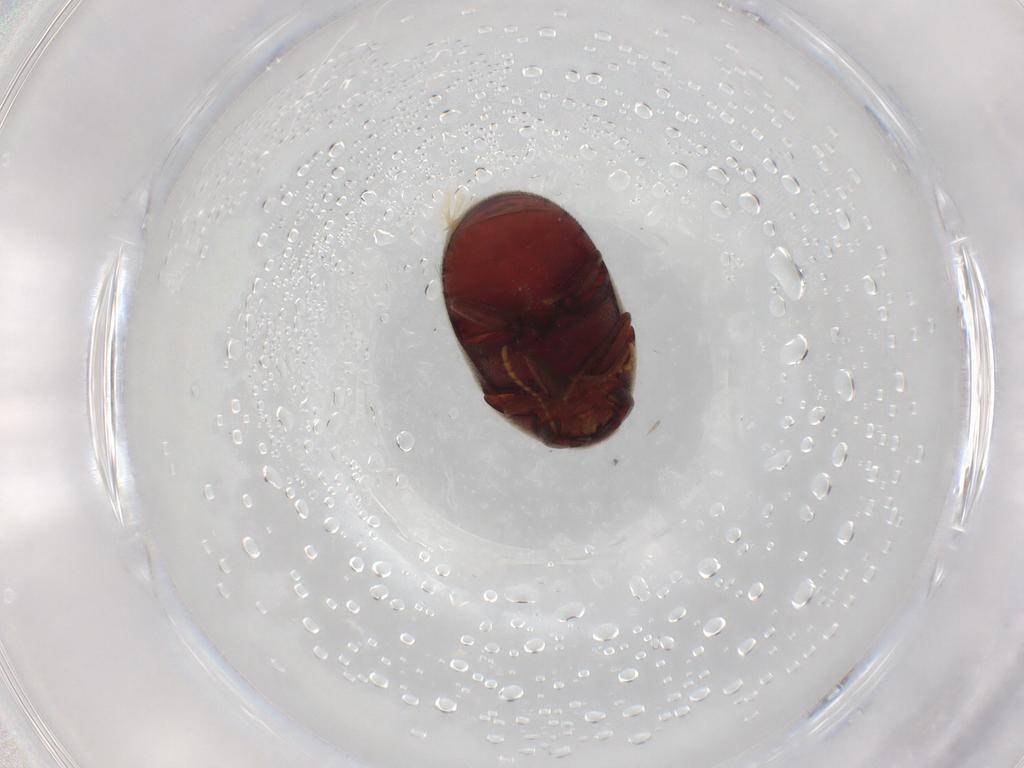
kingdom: Animalia
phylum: Arthropoda
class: Insecta
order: Coleoptera
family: Ptinidae
